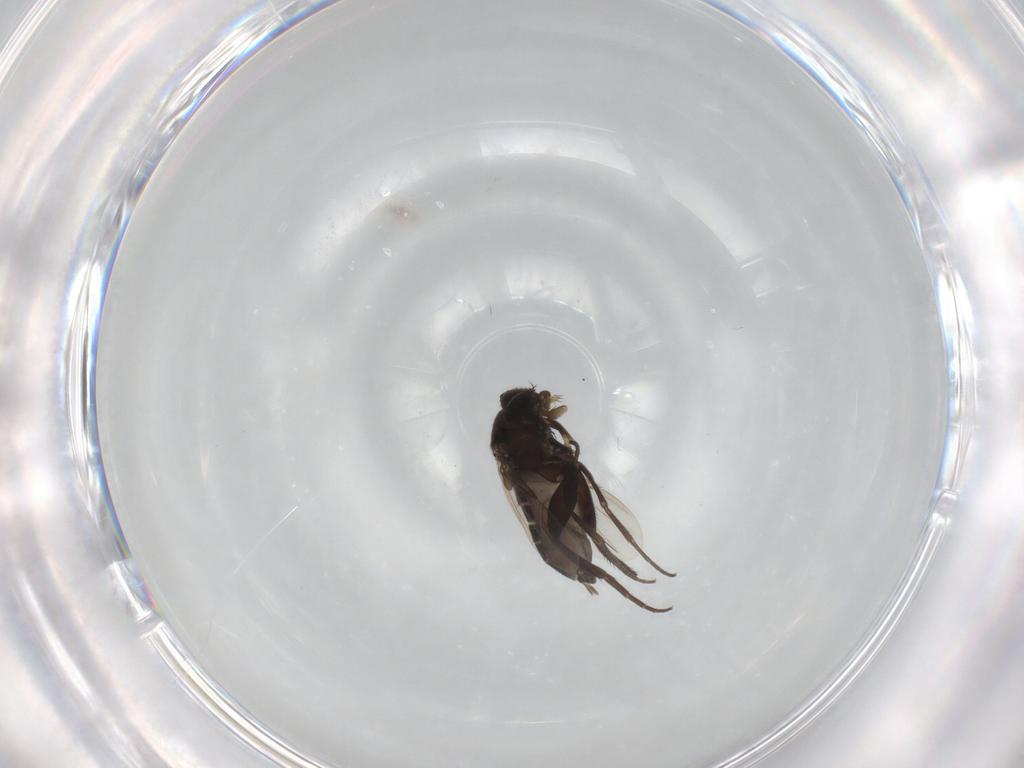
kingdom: Animalia
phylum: Arthropoda
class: Insecta
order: Diptera
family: Phoridae
